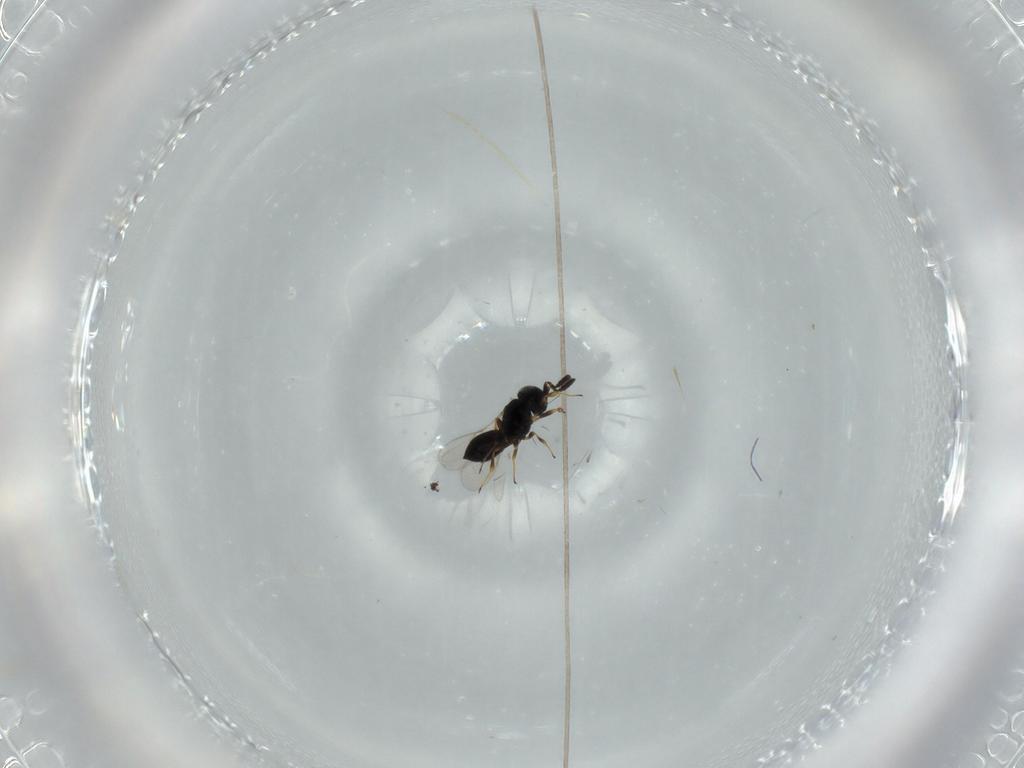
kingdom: Animalia
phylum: Arthropoda
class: Insecta
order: Hymenoptera
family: Scelionidae
